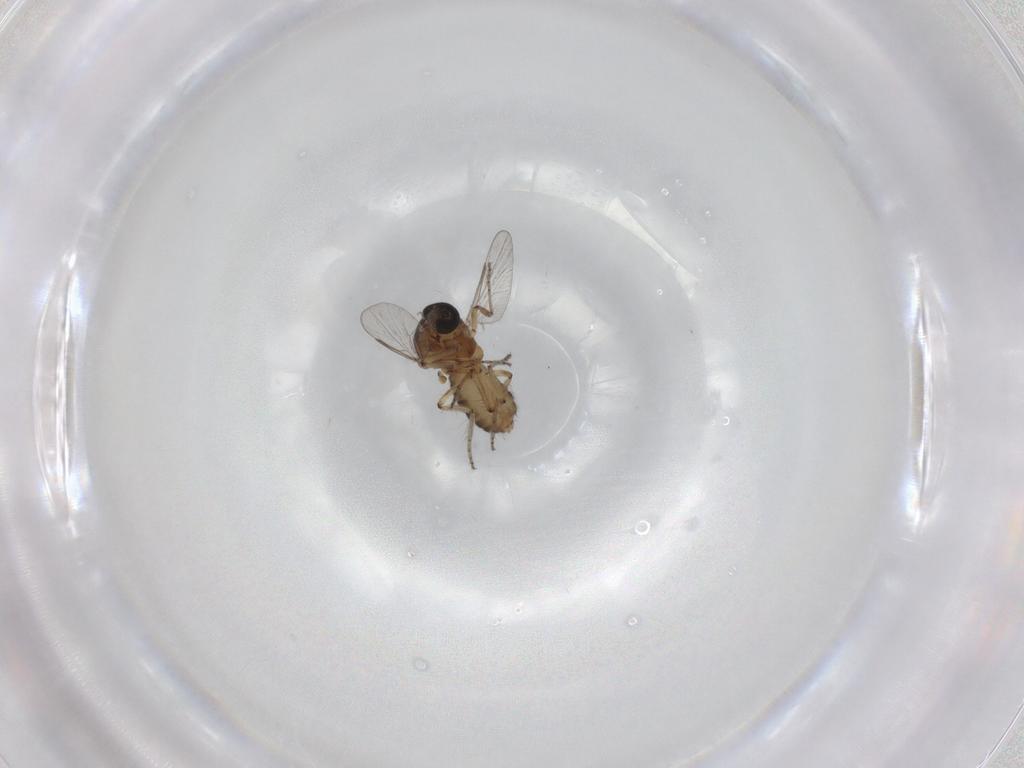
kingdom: Animalia
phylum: Arthropoda
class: Insecta
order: Diptera
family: Ceratopogonidae
